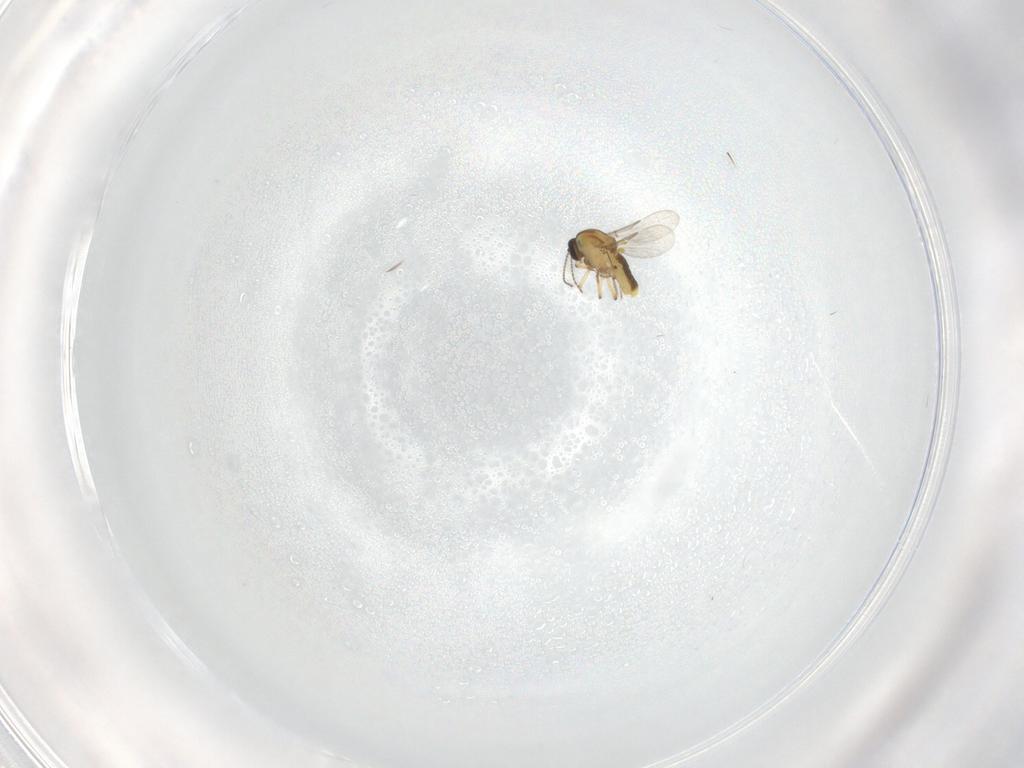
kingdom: Animalia
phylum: Arthropoda
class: Insecta
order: Diptera
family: Ceratopogonidae
